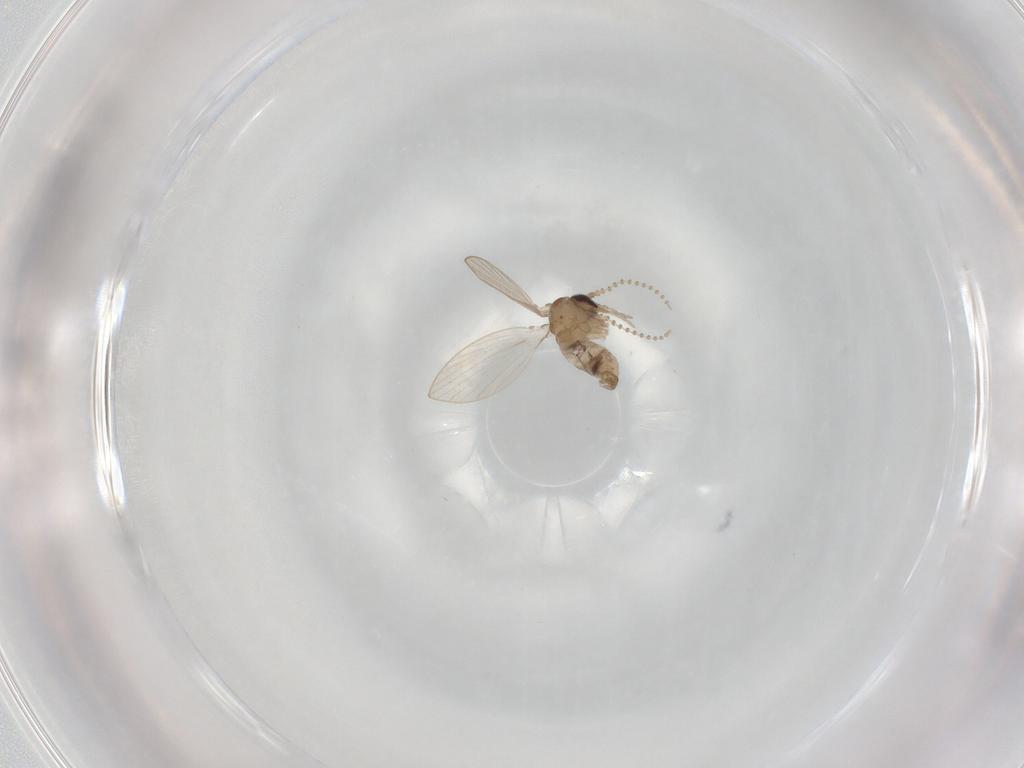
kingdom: Animalia
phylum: Arthropoda
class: Insecta
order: Diptera
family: Psychodidae
